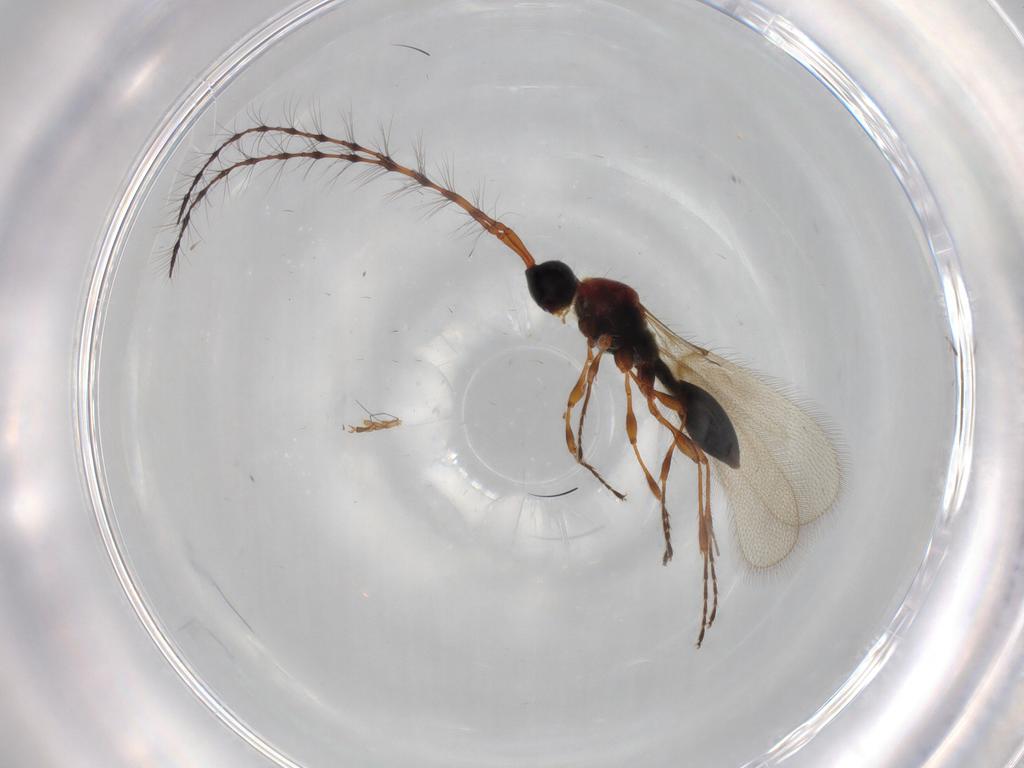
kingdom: Animalia
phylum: Arthropoda
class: Insecta
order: Hymenoptera
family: Diapriidae
